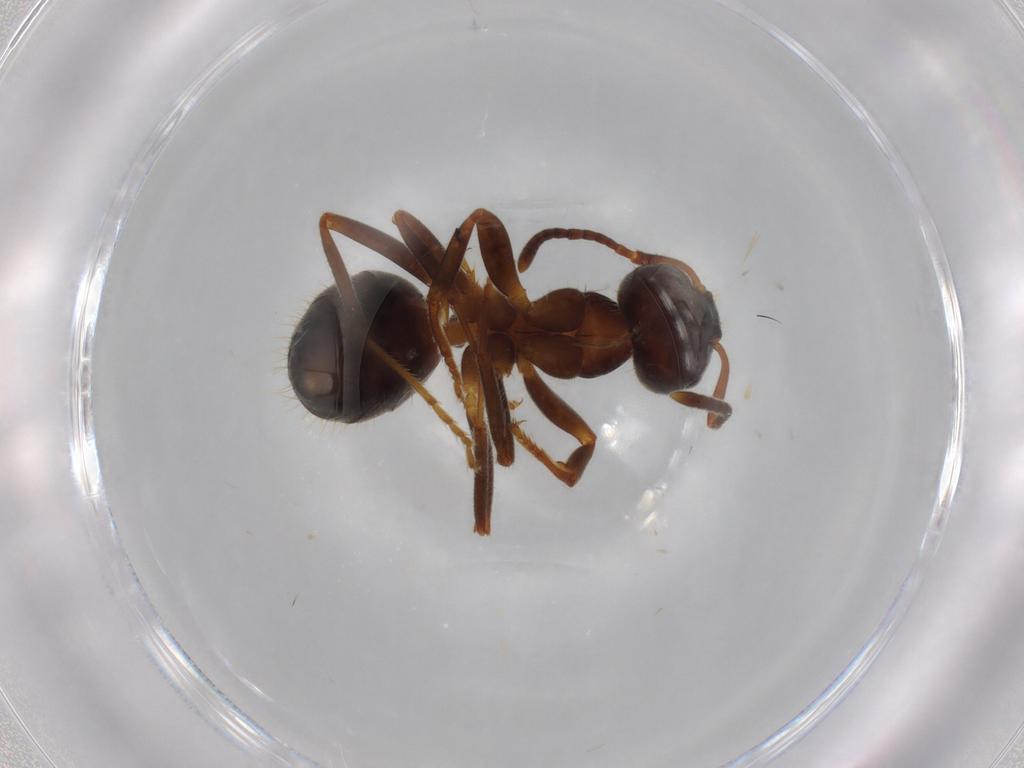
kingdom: Animalia
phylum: Arthropoda
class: Insecta
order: Hymenoptera
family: Formicidae
